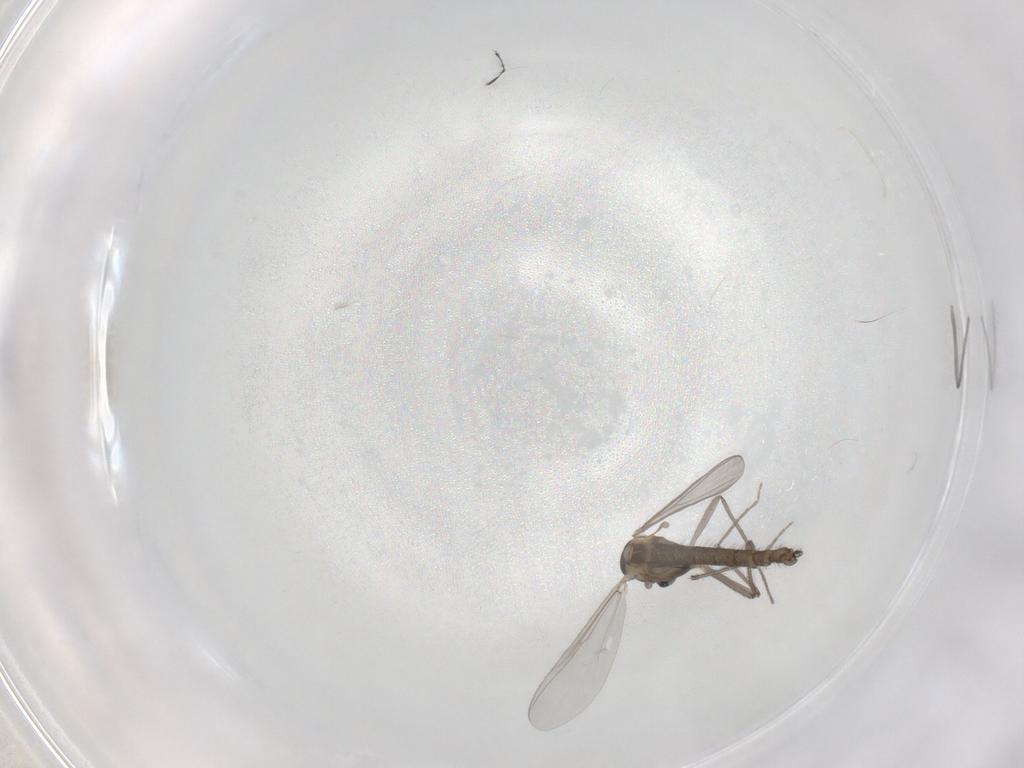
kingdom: Animalia
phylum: Arthropoda
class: Insecta
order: Diptera
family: Chironomidae
